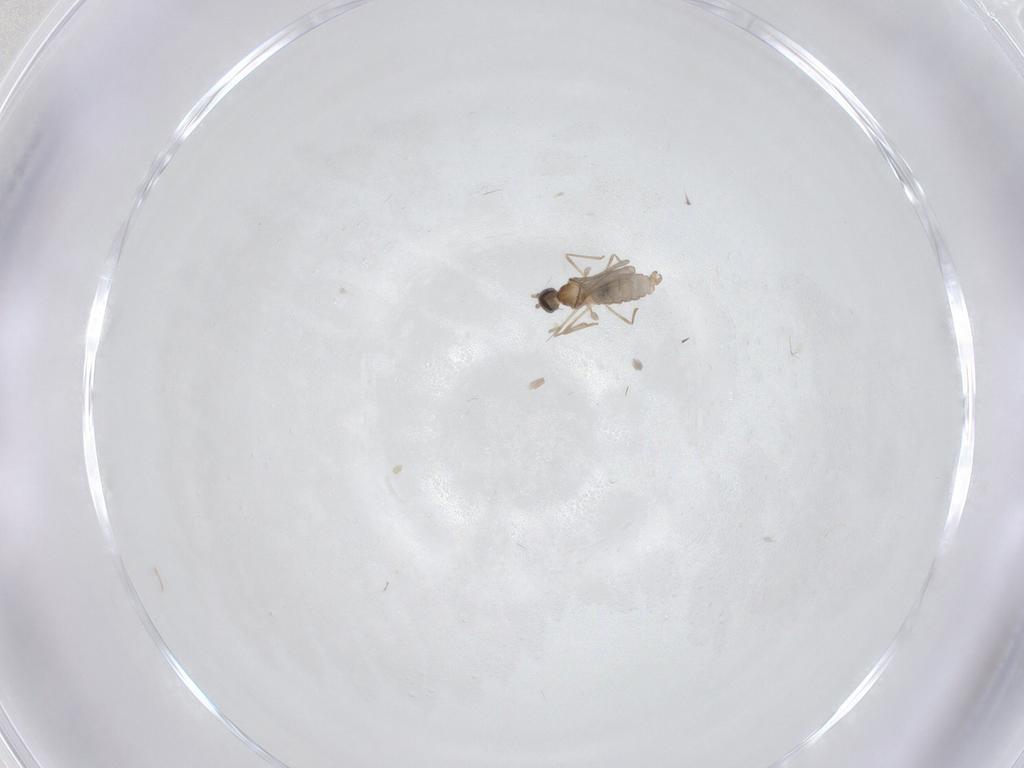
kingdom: Animalia
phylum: Arthropoda
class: Insecta
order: Diptera
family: Cecidomyiidae
